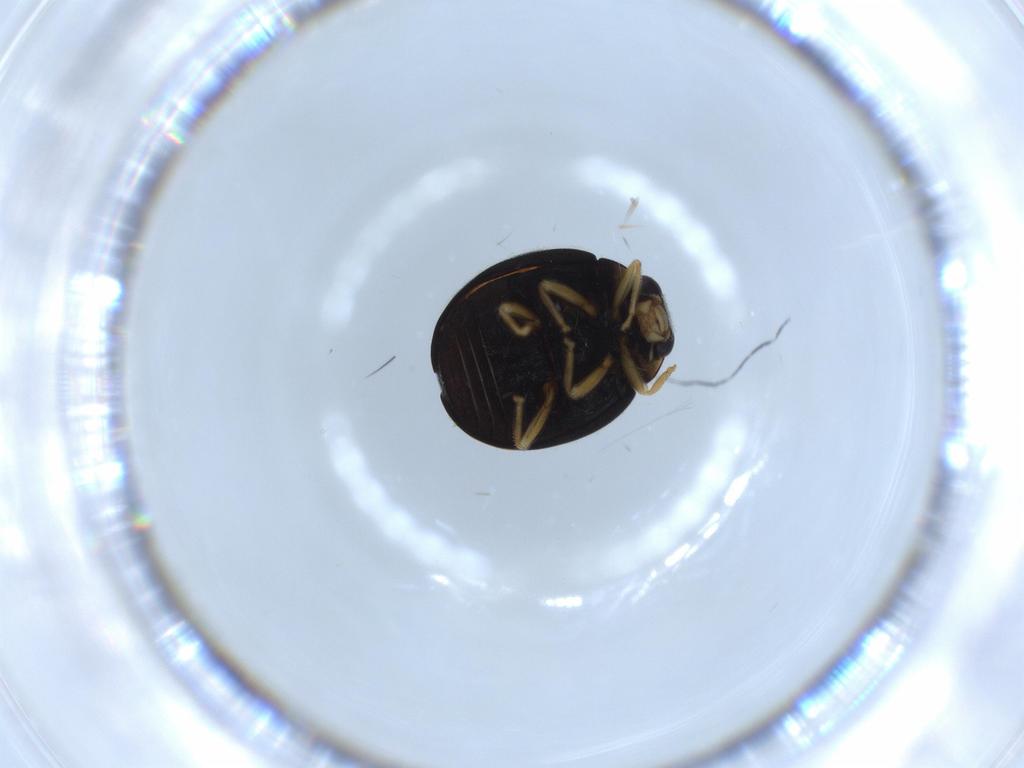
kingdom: Animalia
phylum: Arthropoda
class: Insecta
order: Coleoptera
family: Coccinellidae
